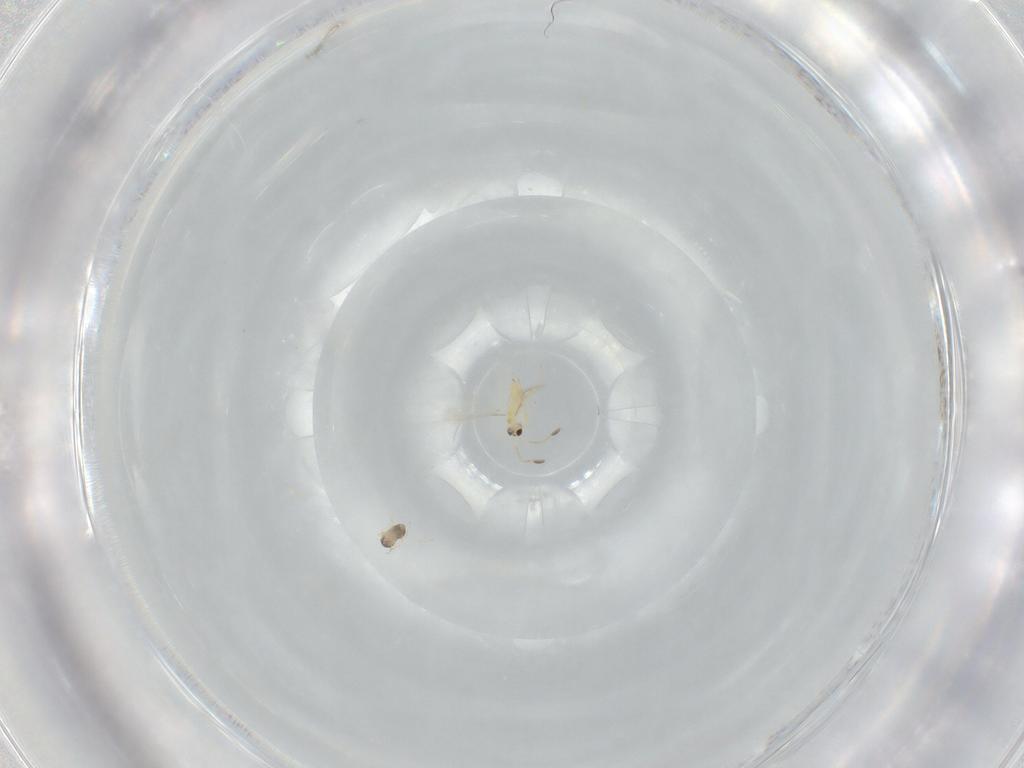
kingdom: Animalia
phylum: Arthropoda
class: Insecta
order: Hymenoptera
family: Mymaridae
